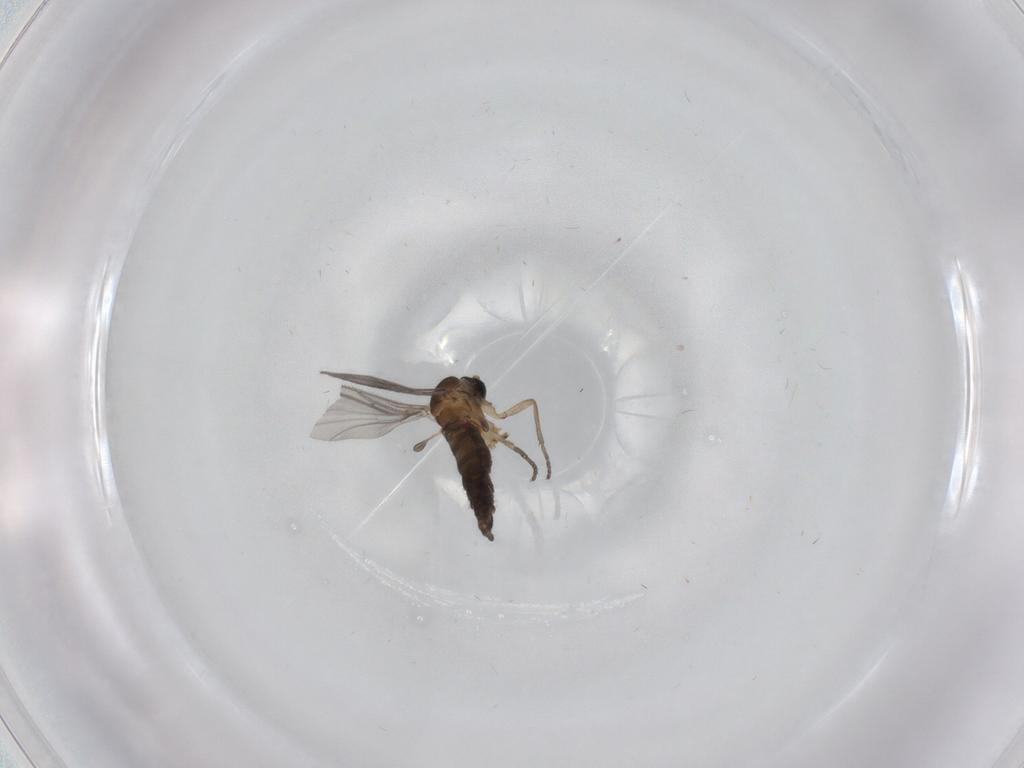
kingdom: Animalia
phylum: Arthropoda
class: Insecta
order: Diptera
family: Sciaridae
